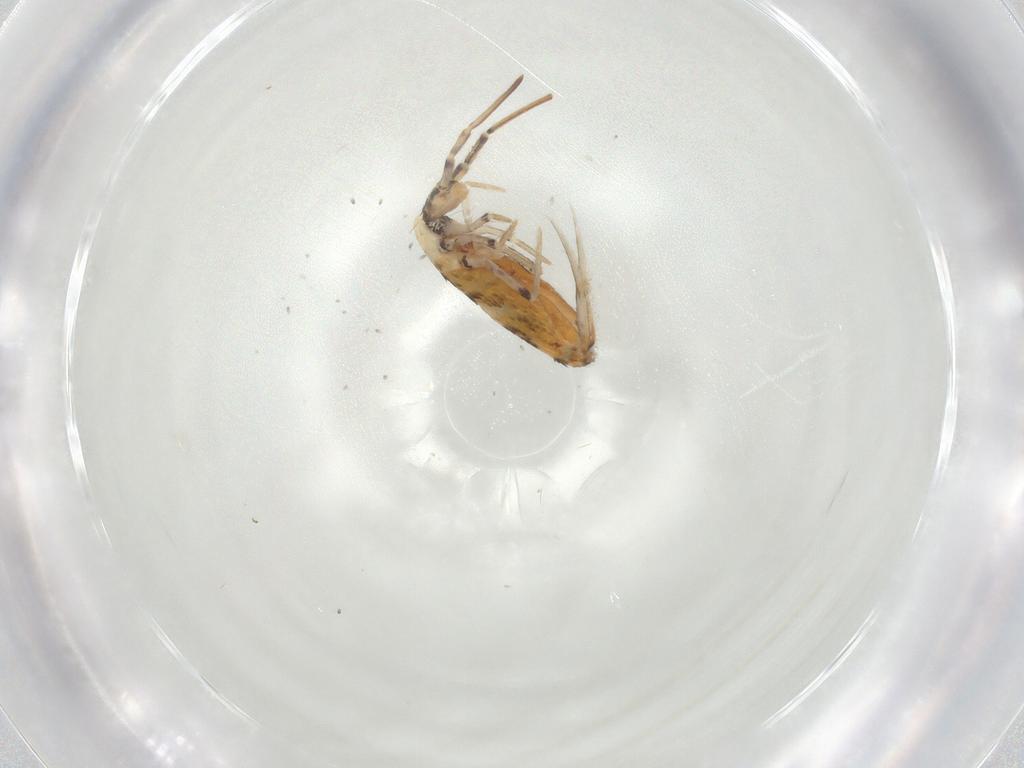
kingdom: Animalia
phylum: Arthropoda
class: Collembola
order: Entomobryomorpha
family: Entomobryidae
